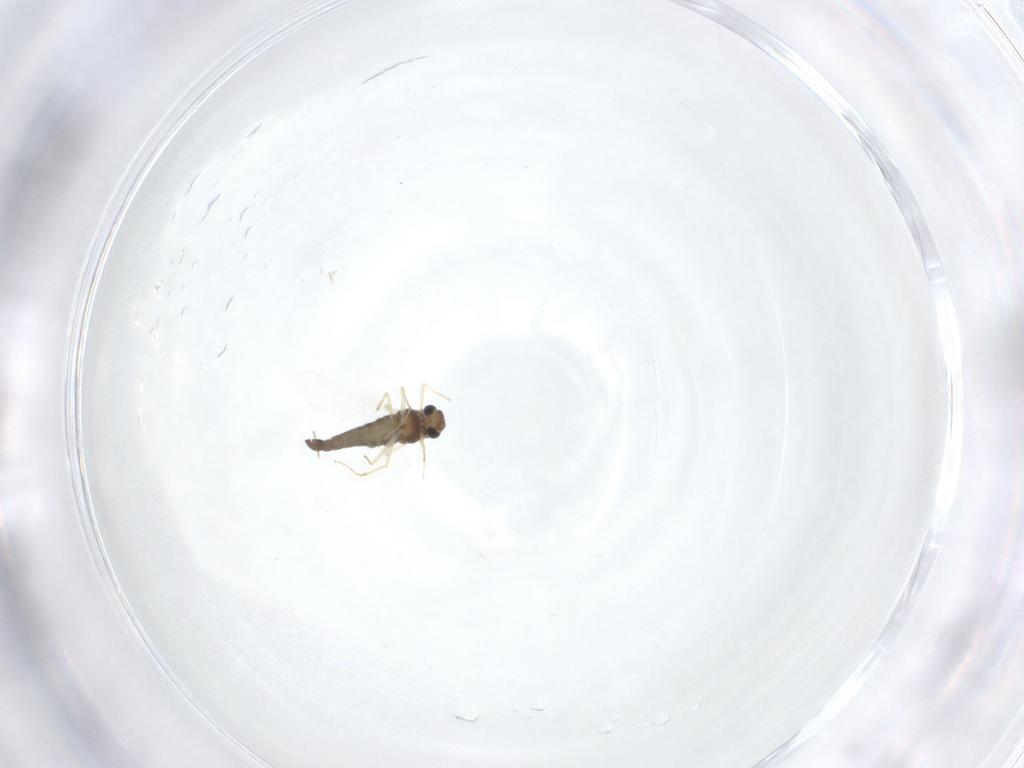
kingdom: Animalia
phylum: Arthropoda
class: Insecta
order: Diptera
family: Chironomidae
